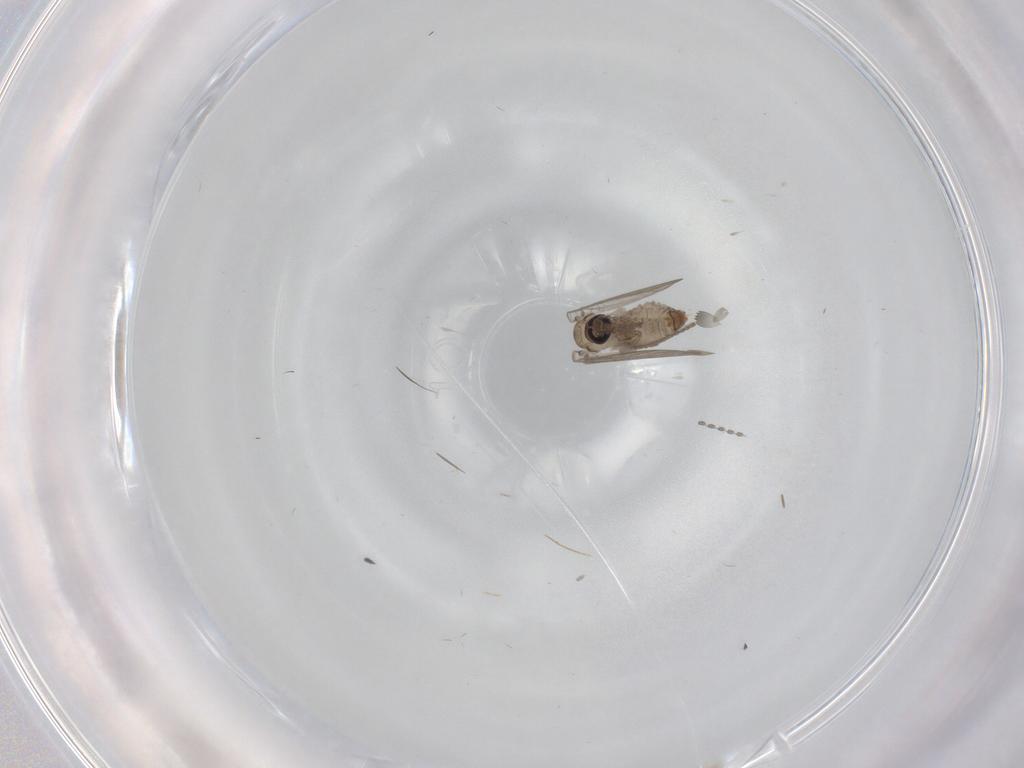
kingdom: Animalia
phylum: Arthropoda
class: Insecta
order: Diptera
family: Psychodidae
